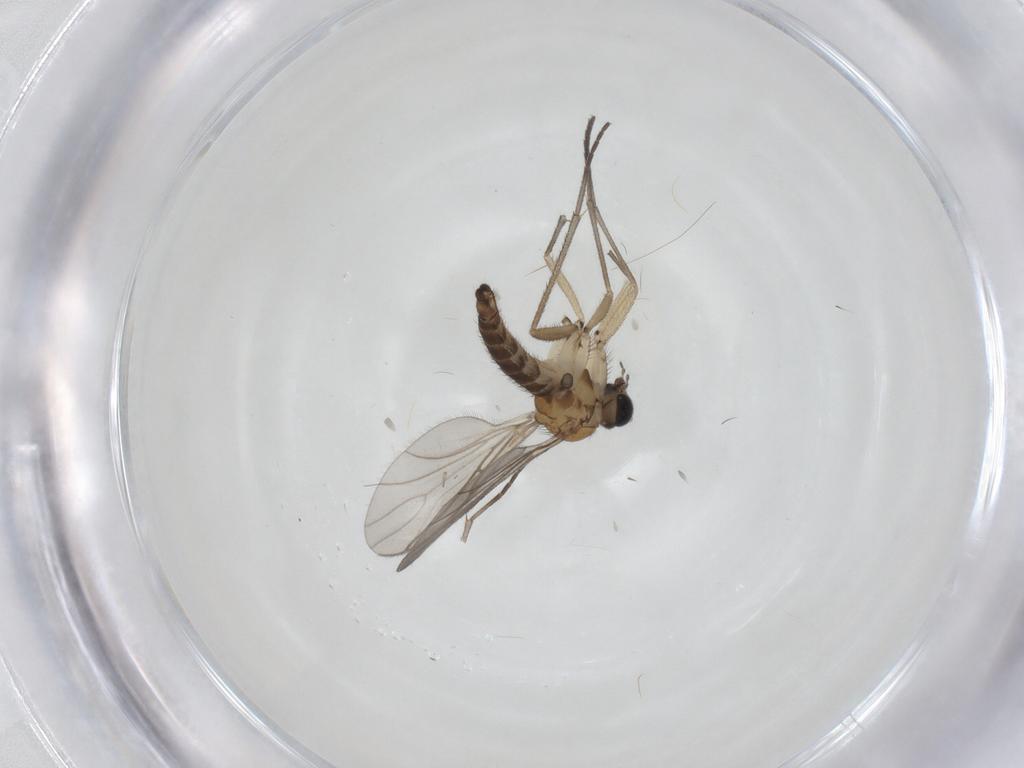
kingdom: Animalia
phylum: Arthropoda
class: Insecta
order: Diptera
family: Sciaridae
